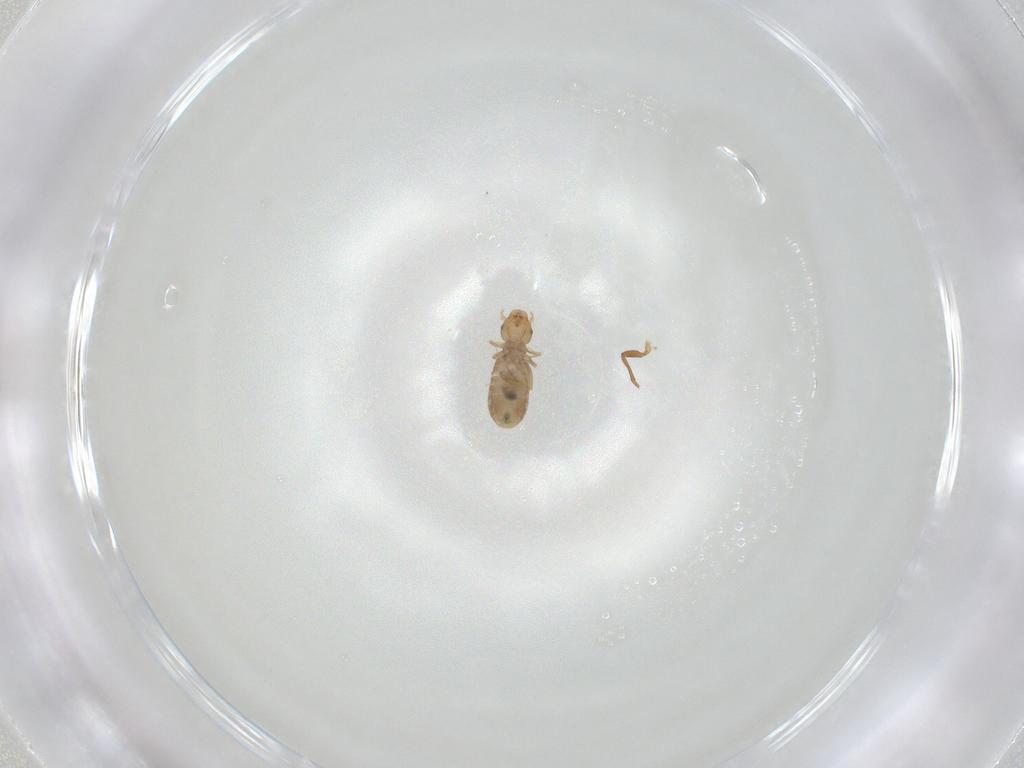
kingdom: Animalia
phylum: Arthropoda
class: Insecta
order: Psocodea
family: Liposcelididae
